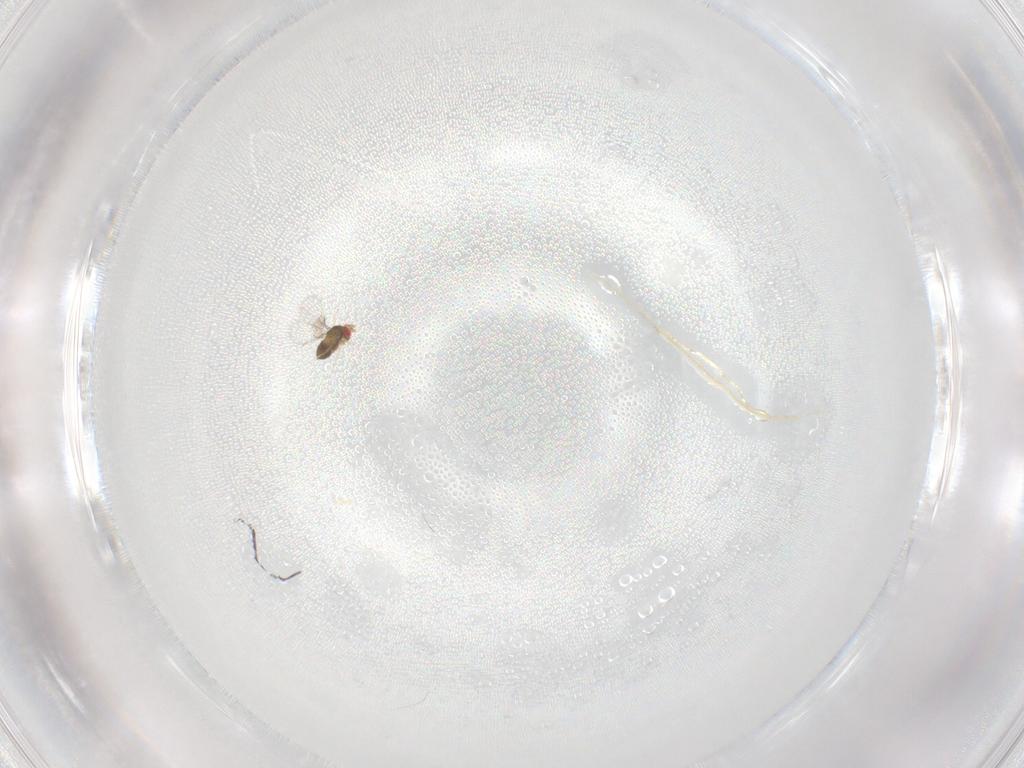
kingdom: Animalia
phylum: Arthropoda
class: Insecta
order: Hymenoptera
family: Trichogrammatidae
